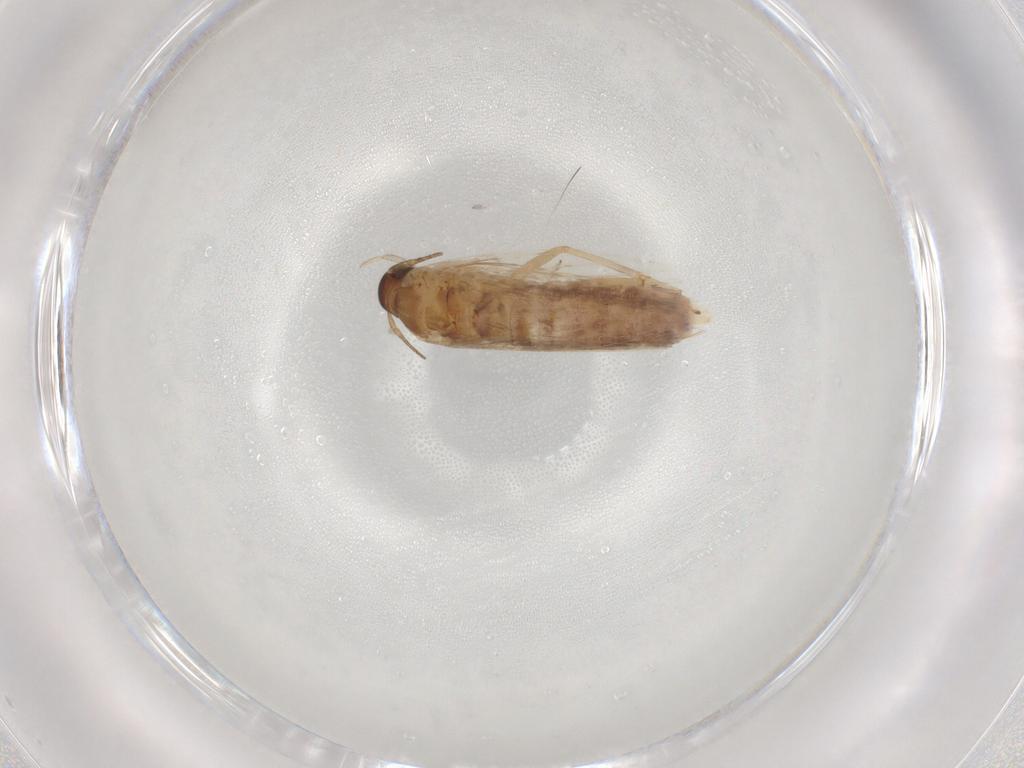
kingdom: Animalia
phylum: Arthropoda
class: Insecta
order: Lepidoptera
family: Gelechiidae
